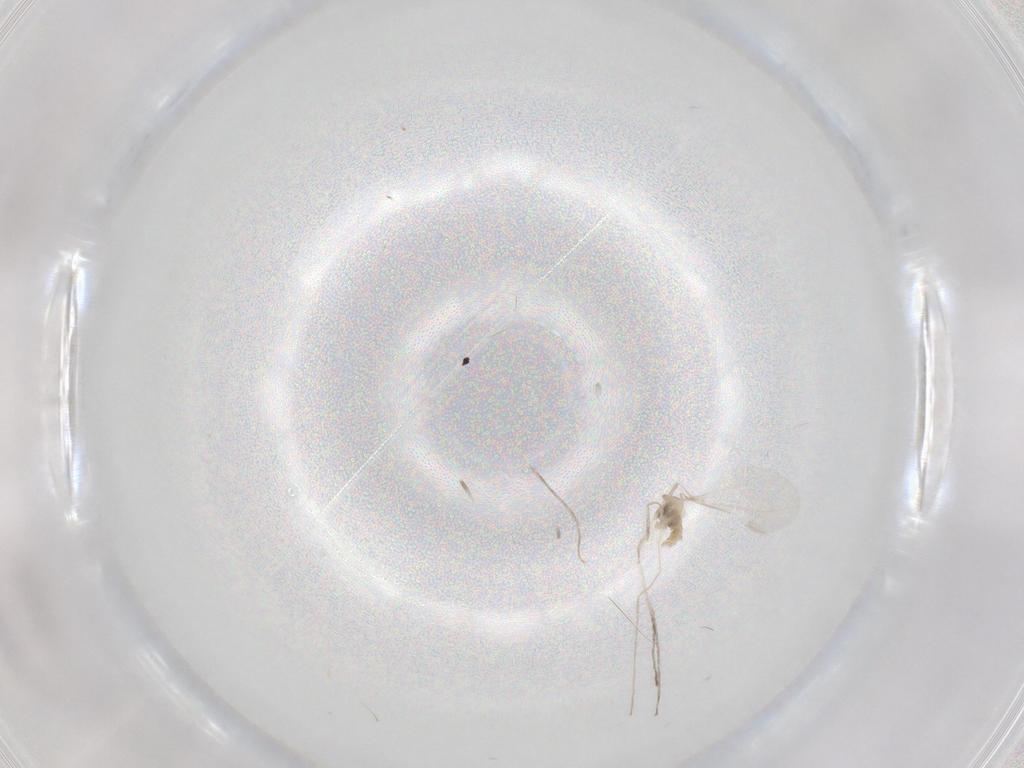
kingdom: Animalia
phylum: Arthropoda
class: Insecta
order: Diptera
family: Cecidomyiidae
